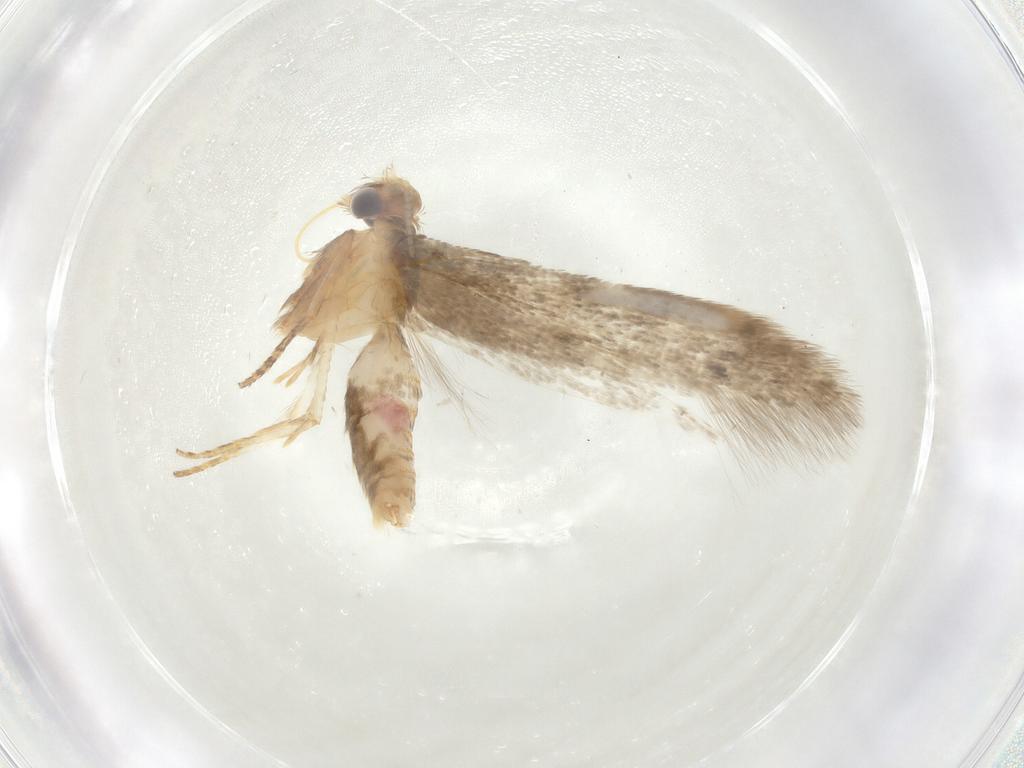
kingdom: Animalia
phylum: Arthropoda
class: Insecta
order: Lepidoptera
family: Coleophoridae
